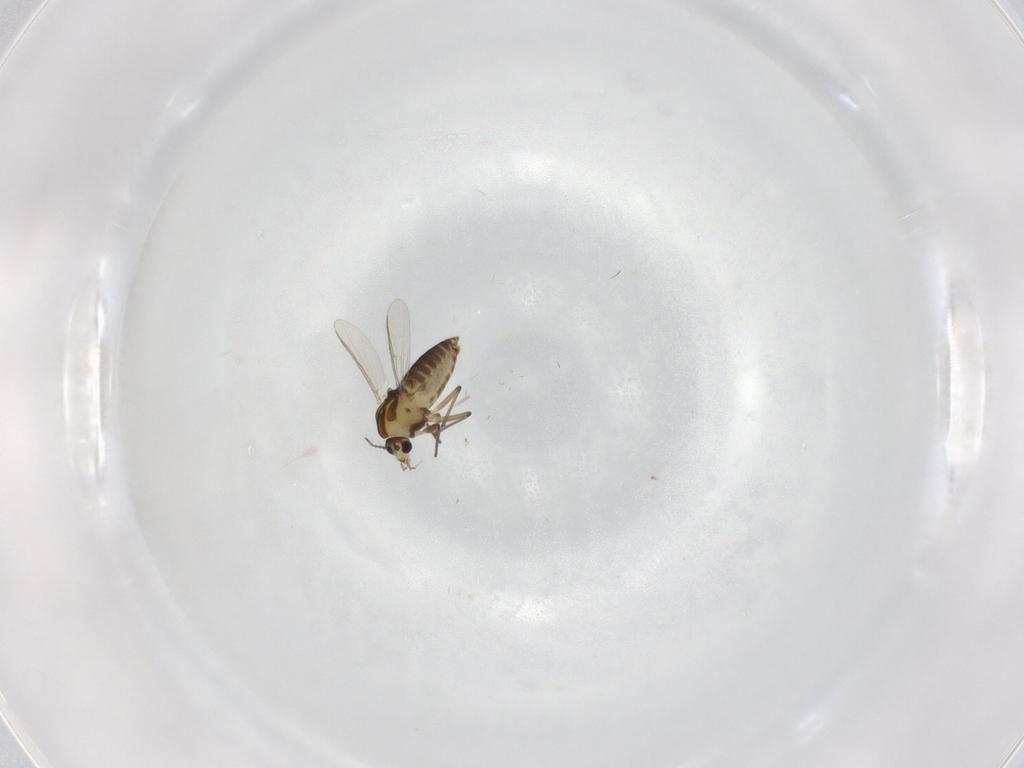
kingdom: Animalia
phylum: Arthropoda
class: Insecta
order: Diptera
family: Chironomidae
